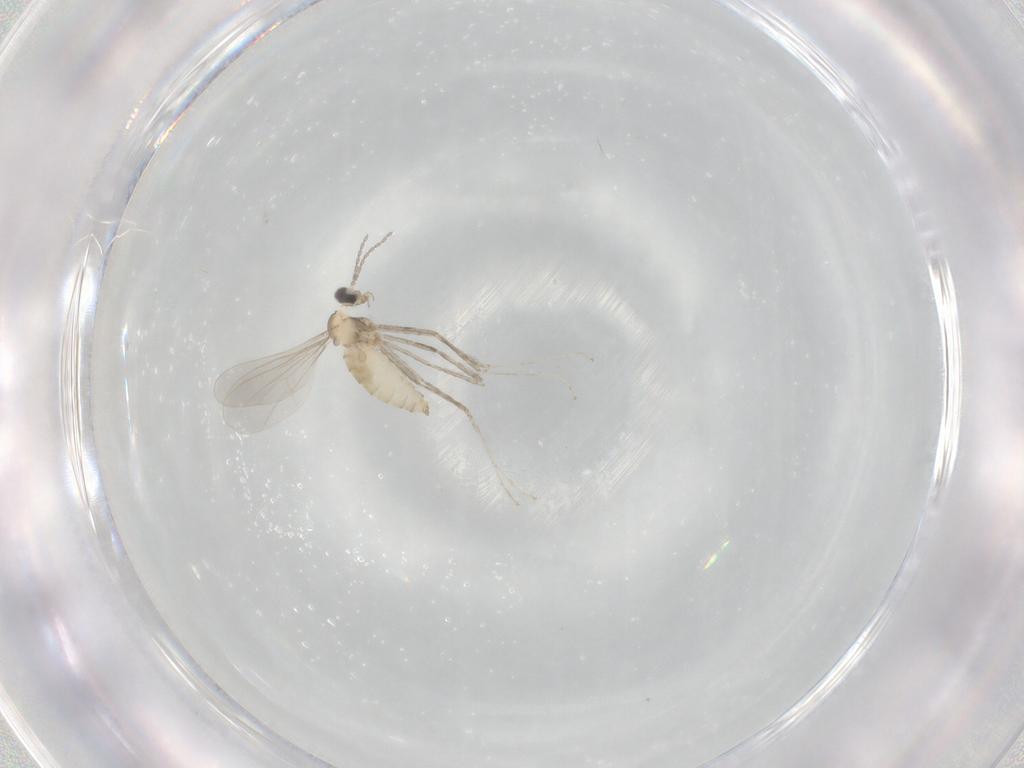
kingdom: Animalia
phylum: Arthropoda
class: Insecta
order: Diptera
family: Cecidomyiidae
